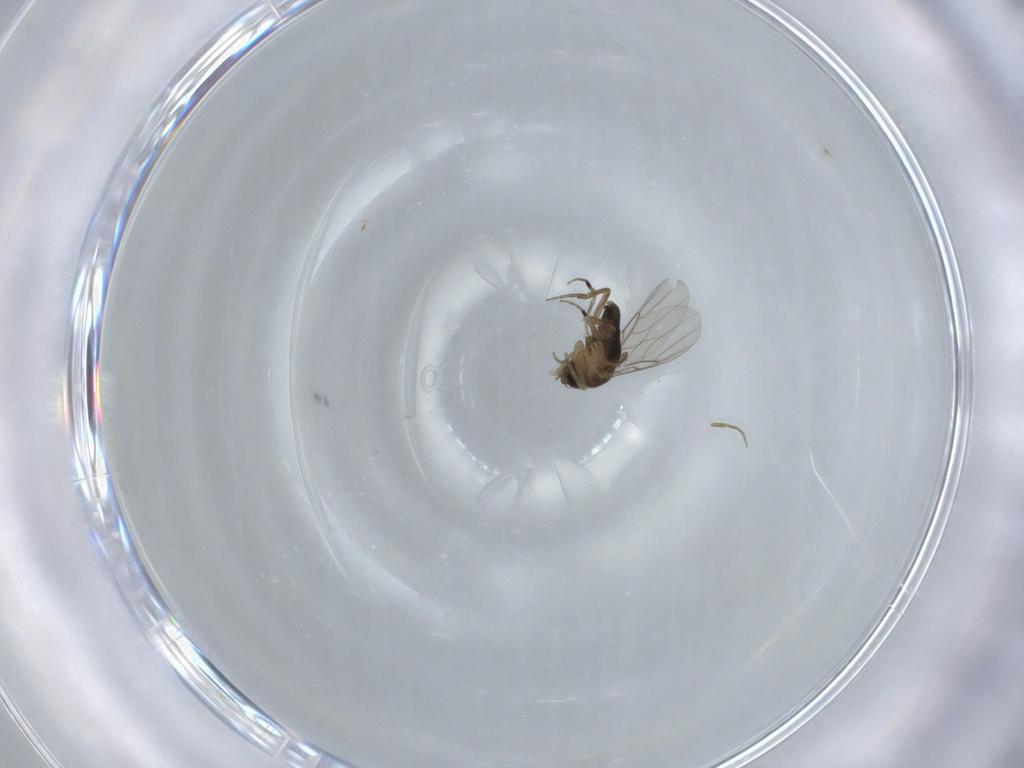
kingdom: Animalia
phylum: Arthropoda
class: Insecta
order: Diptera
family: Phoridae
